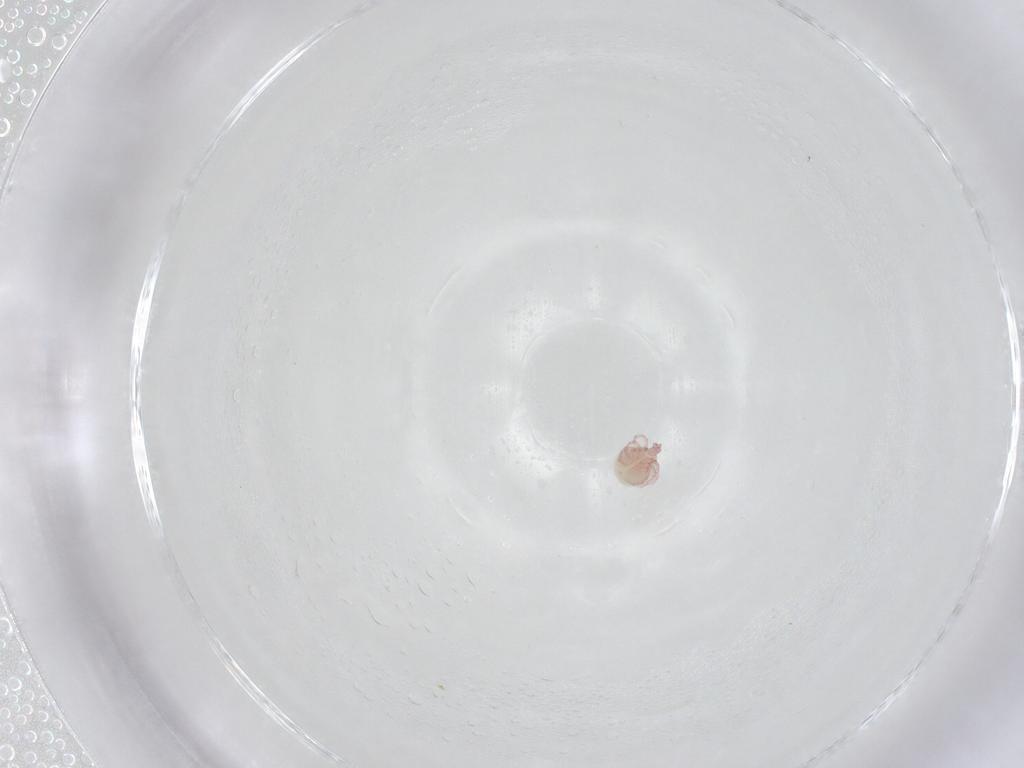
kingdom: Animalia
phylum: Arthropoda
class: Arachnida
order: Trombidiformes
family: Pionidae
